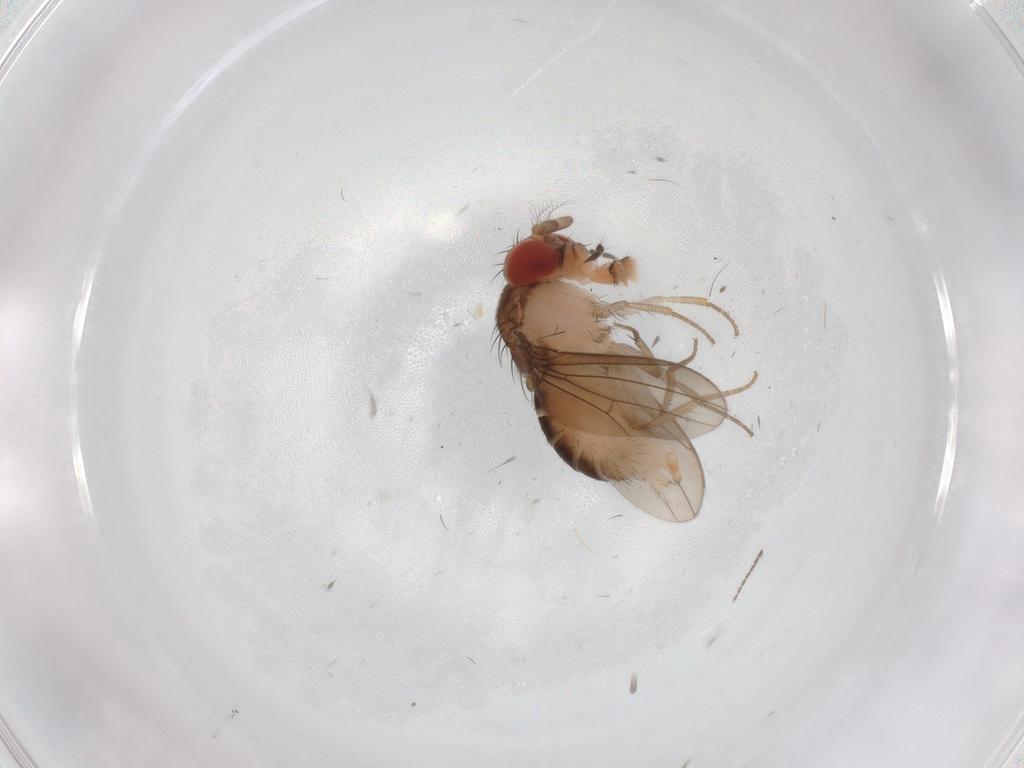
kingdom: Animalia
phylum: Arthropoda
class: Insecta
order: Diptera
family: Drosophilidae
